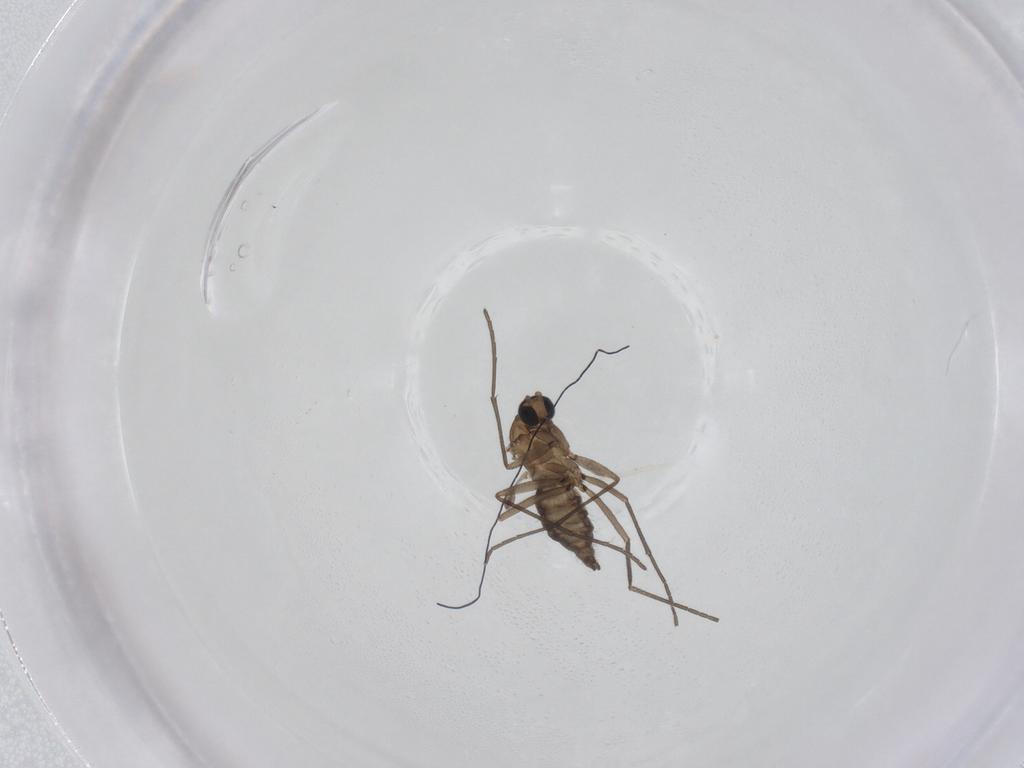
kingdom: Animalia
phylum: Arthropoda
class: Insecta
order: Diptera
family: Sciaridae
